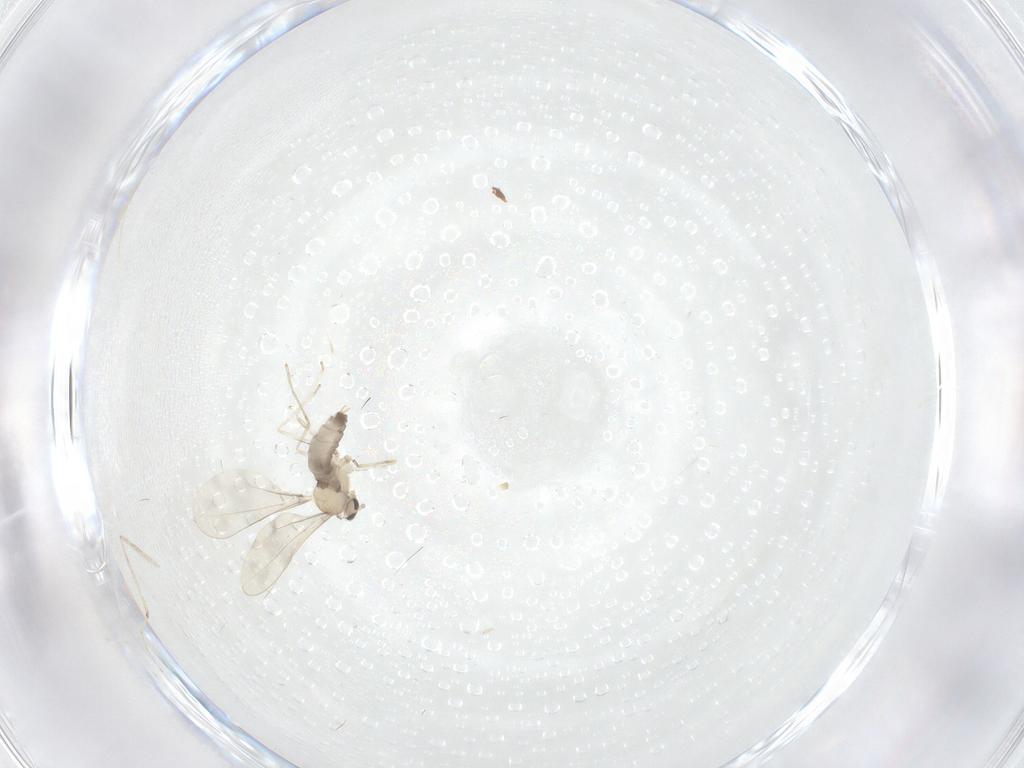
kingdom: Animalia
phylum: Arthropoda
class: Insecta
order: Diptera
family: Cecidomyiidae
